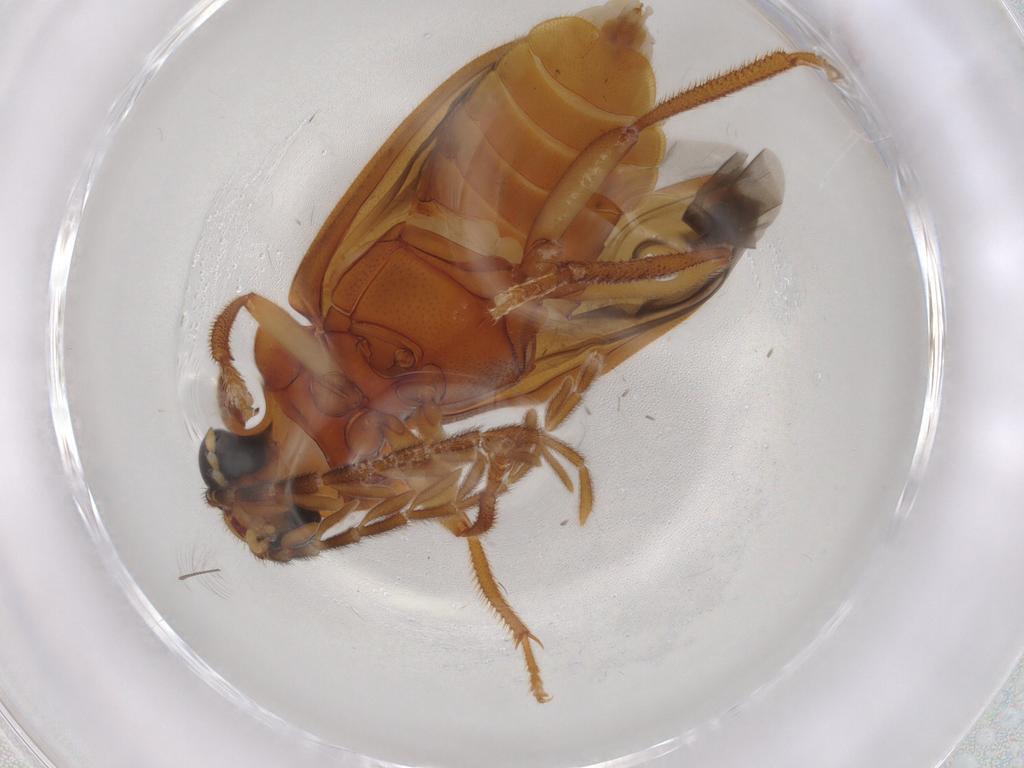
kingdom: Animalia
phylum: Arthropoda
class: Insecta
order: Coleoptera
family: Ptilodactylidae
